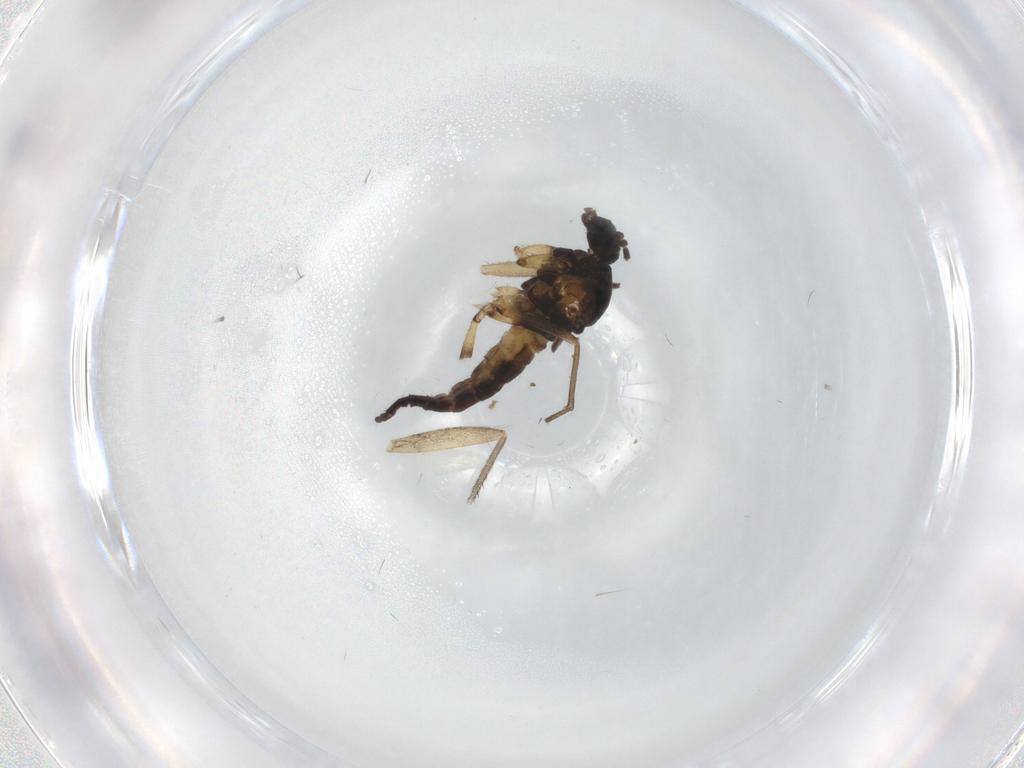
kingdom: Animalia
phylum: Arthropoda
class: Insecta
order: Diptera
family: Sciaridae
